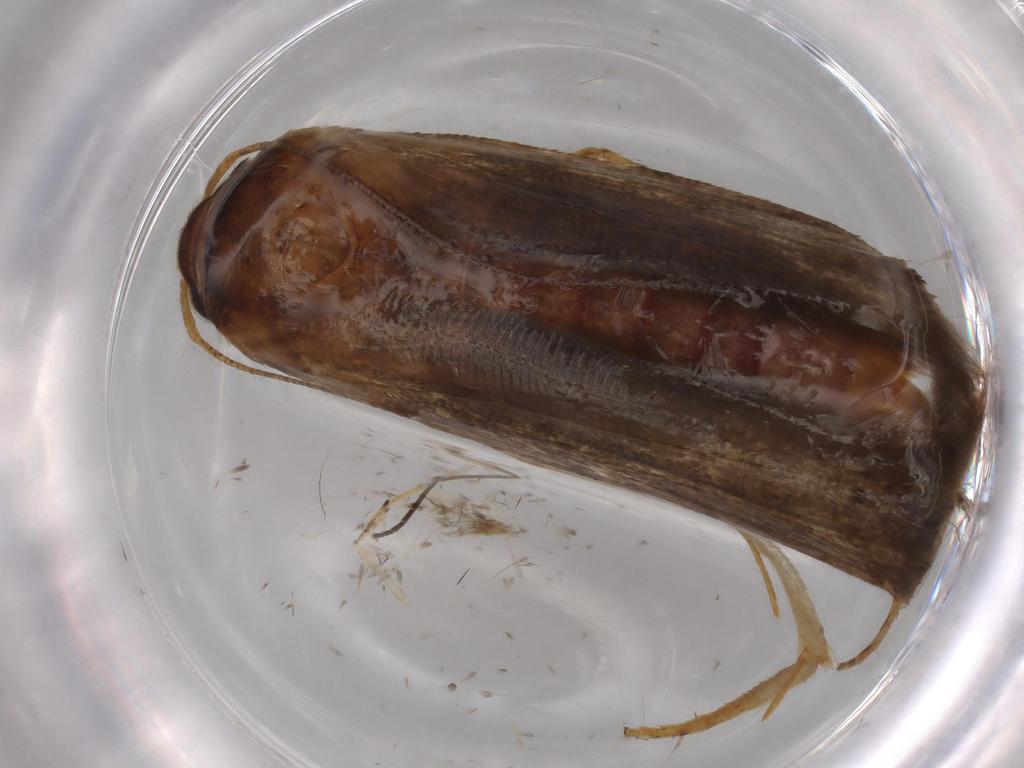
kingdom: Animalia
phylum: Arthropoda
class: Insecta
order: Lepidoptera
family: Blastobasidae
